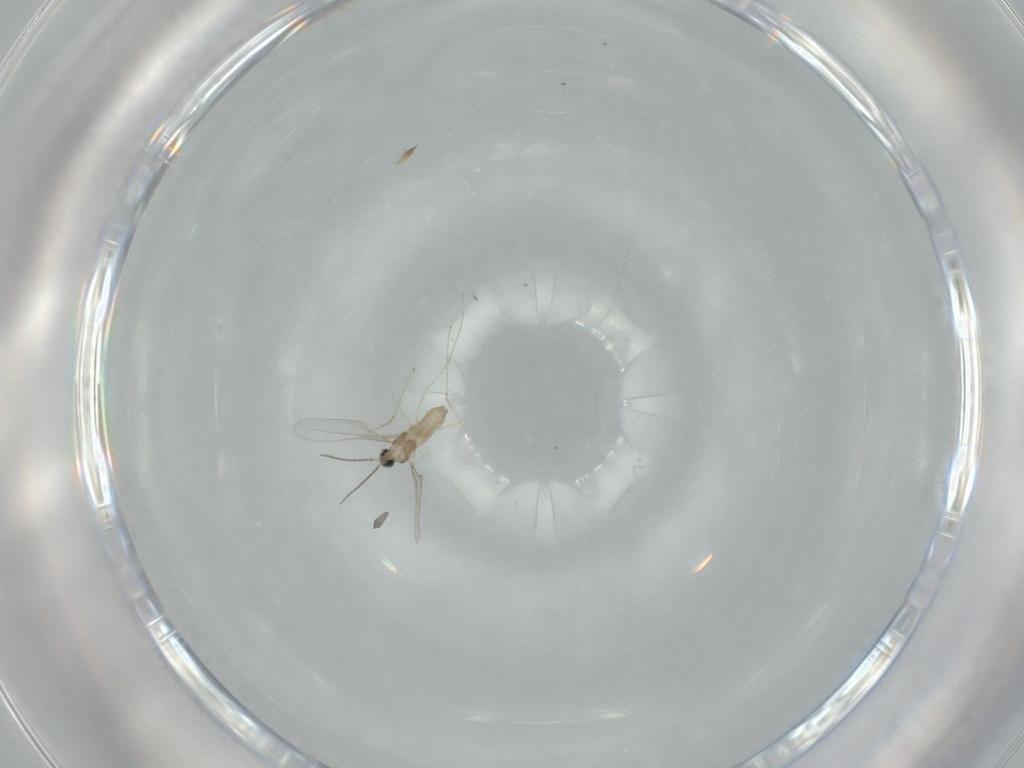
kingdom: Animalia
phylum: Arthropoda
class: Insecta
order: Diptera
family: Cecidomyiidae
